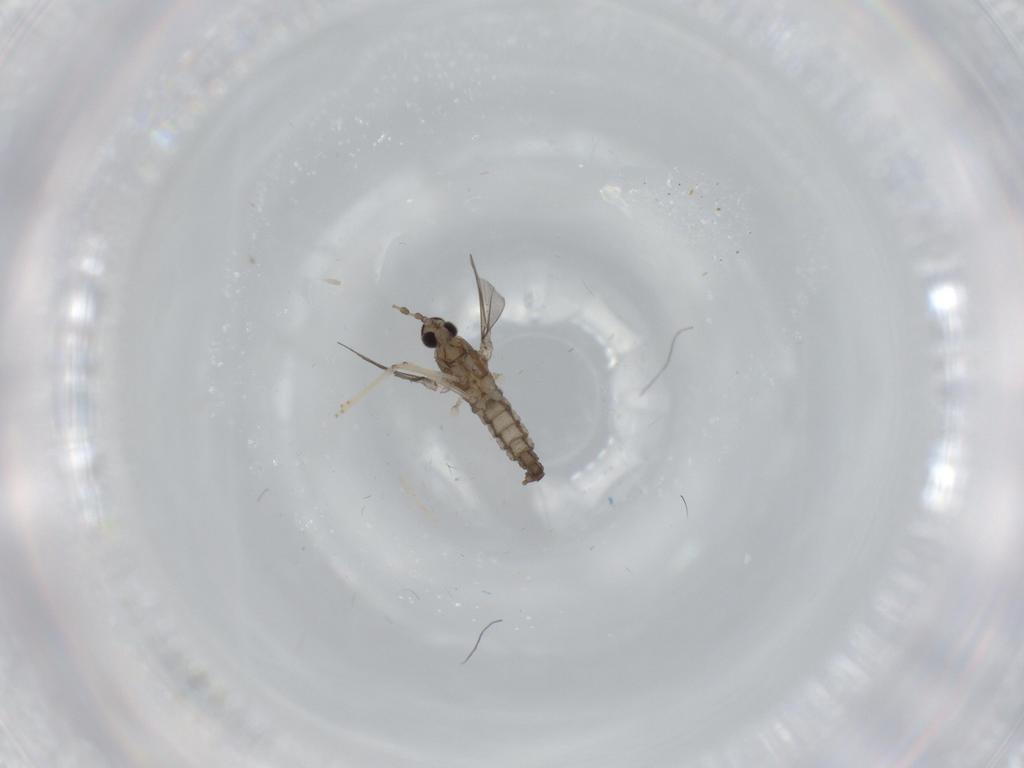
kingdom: Animalia
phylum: Arthropoda
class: Insecta
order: Diptera
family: Cecidomyiidae
